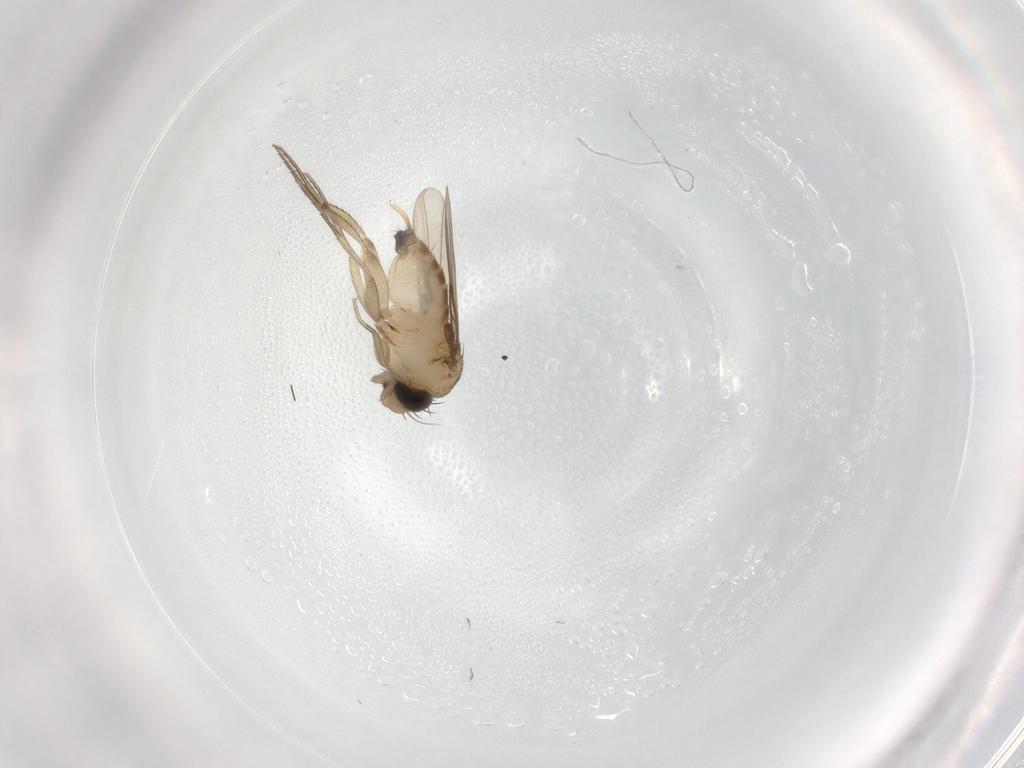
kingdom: Animalia
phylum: Arthropoda
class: Insecta
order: Diptera
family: Phoridae
